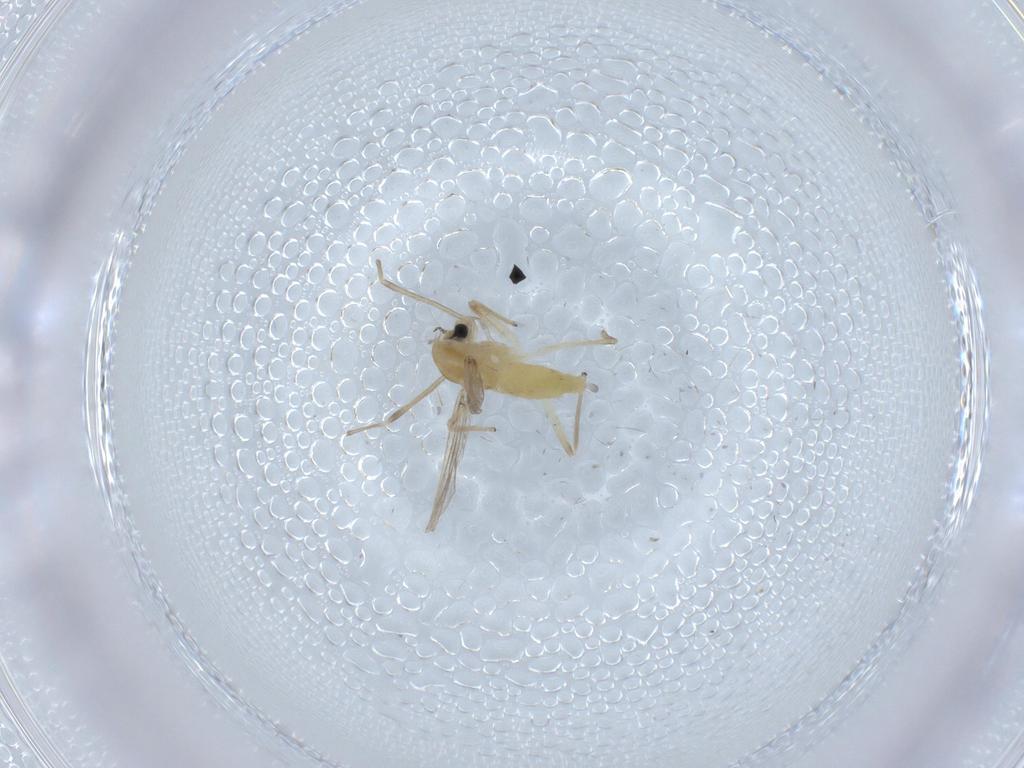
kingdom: Animalia
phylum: Arthropoda
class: Insecta
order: Diptera
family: Chironomidae
